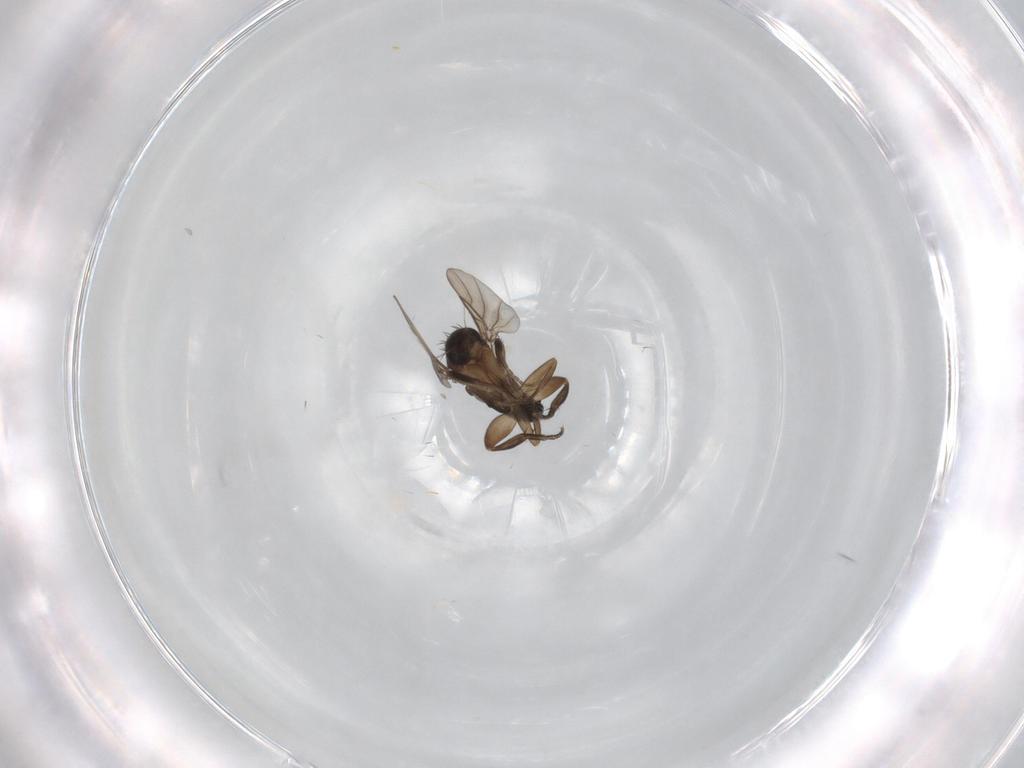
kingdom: Animalia
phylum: Arthropoda
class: Insecta
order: Diptera
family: Phoridae
